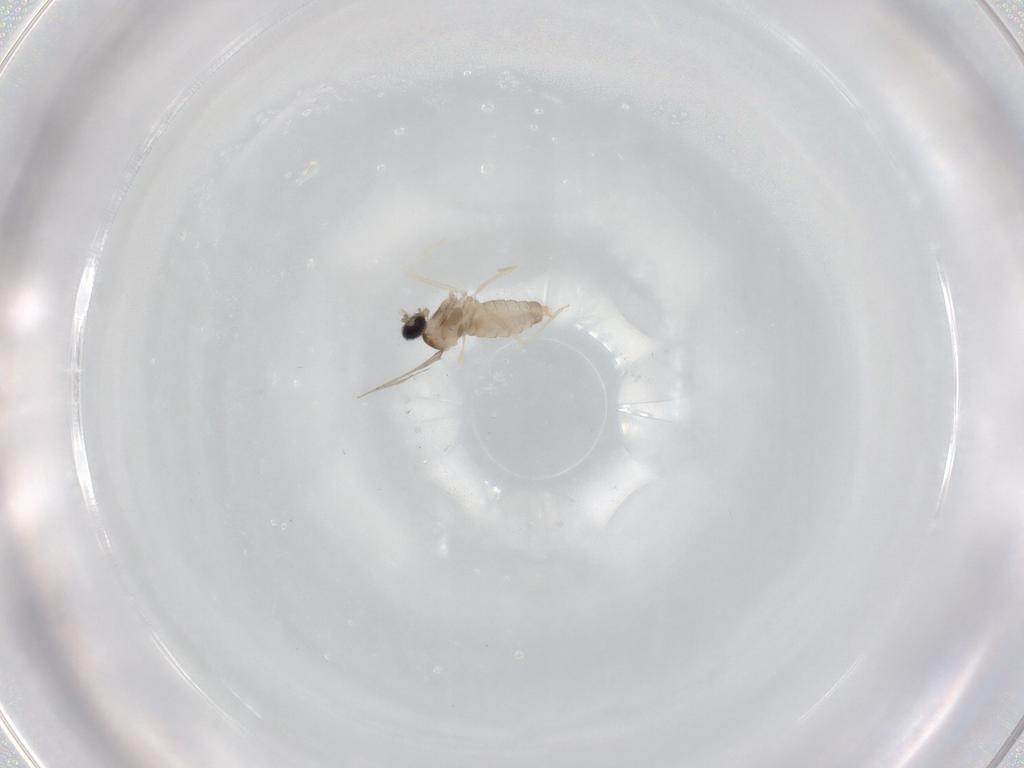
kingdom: Animalia
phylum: Arthropoda
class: Insecta
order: Diptera
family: Cecidomyiidae
